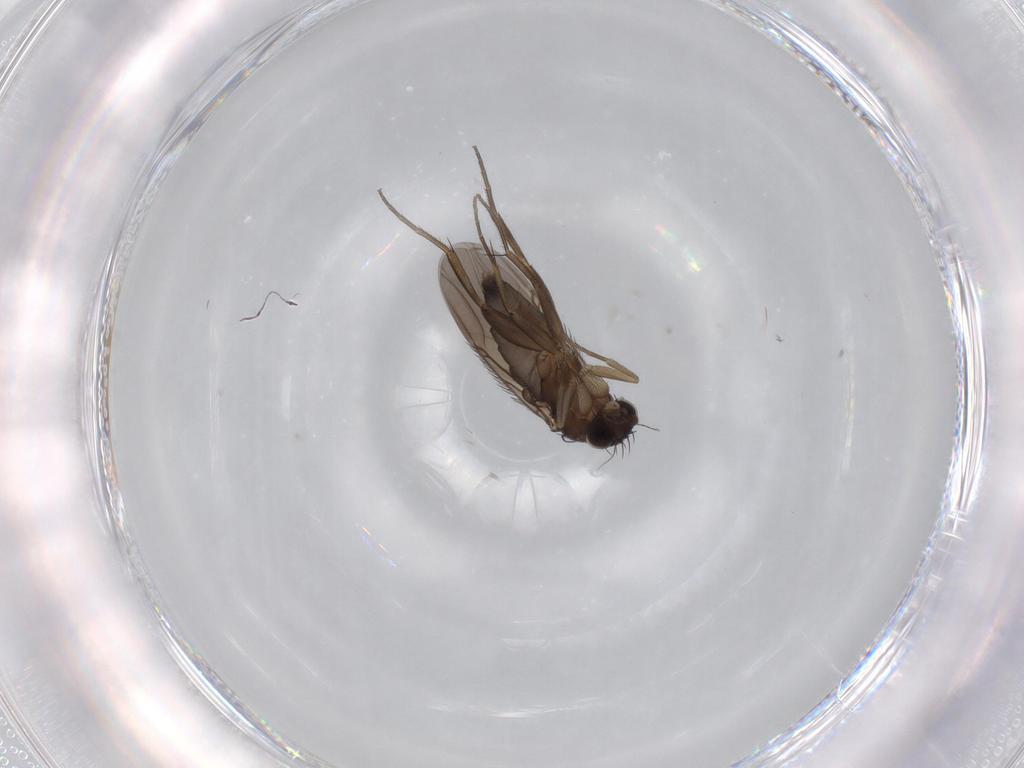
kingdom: Animalia
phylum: Arthropoda
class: Insecta
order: Diptera
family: Phoridae
